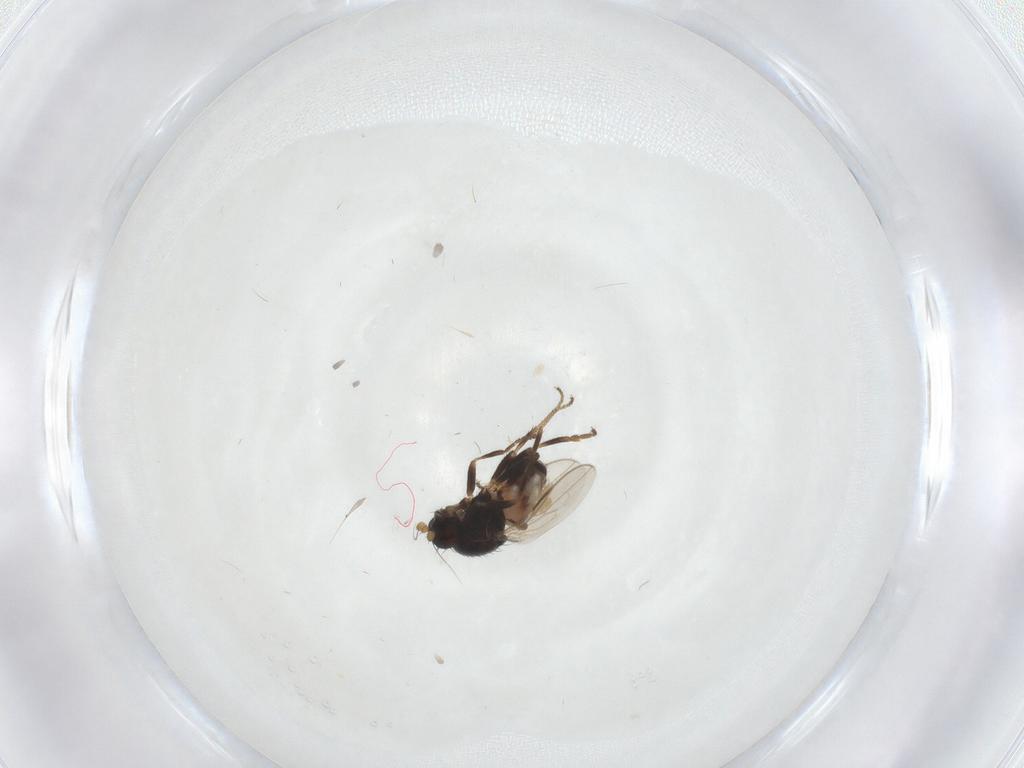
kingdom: Animalia
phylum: Arthropoda
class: Insecta
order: Diptera
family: Sphaeroceridae
